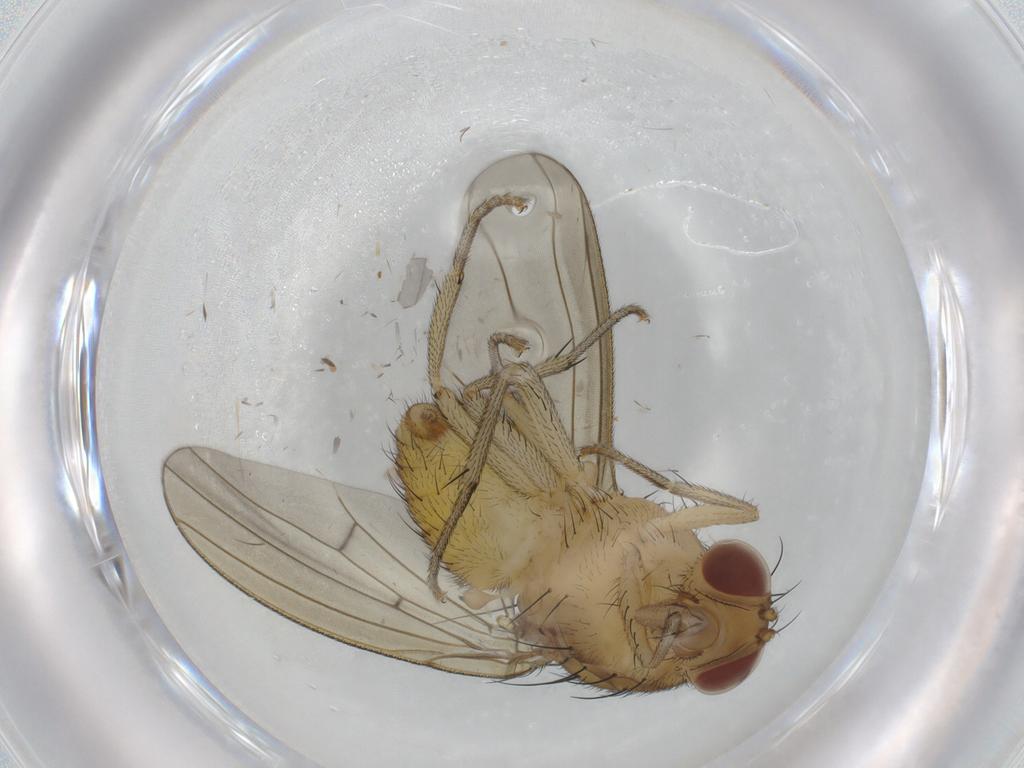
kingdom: Animalia
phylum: Arthropoda
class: Insecta
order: Diptera
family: Lauxaniidae
